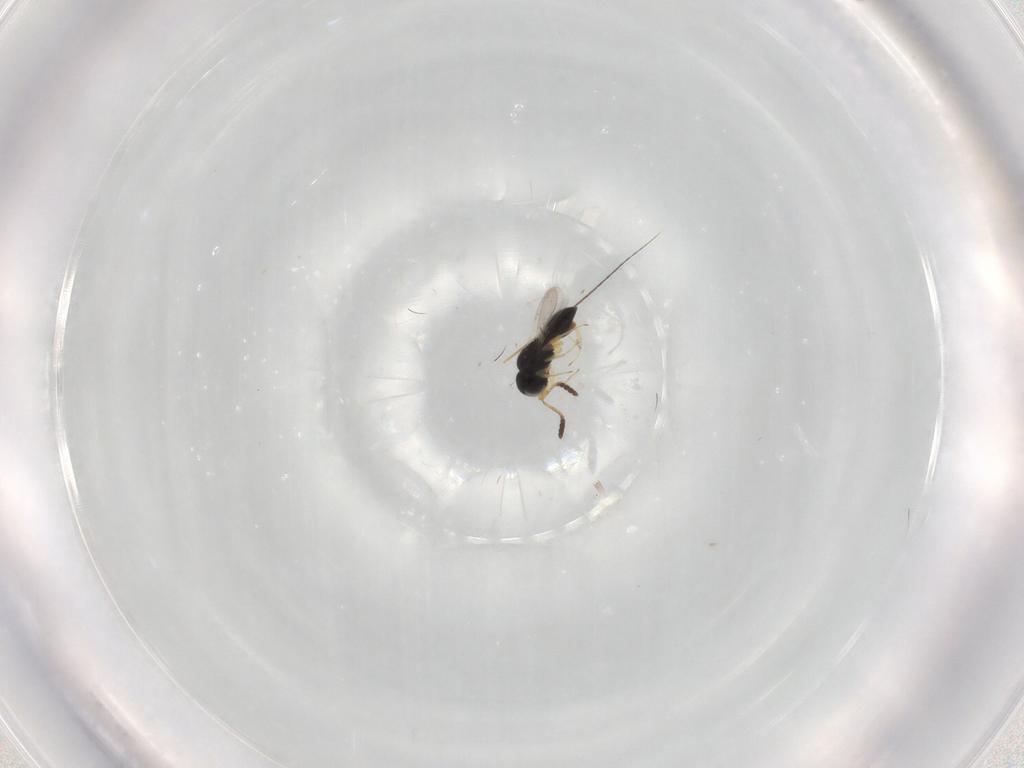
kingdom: Animalia
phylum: Arthropoda
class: Insecta
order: Hymenoptera
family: Scelionidae
